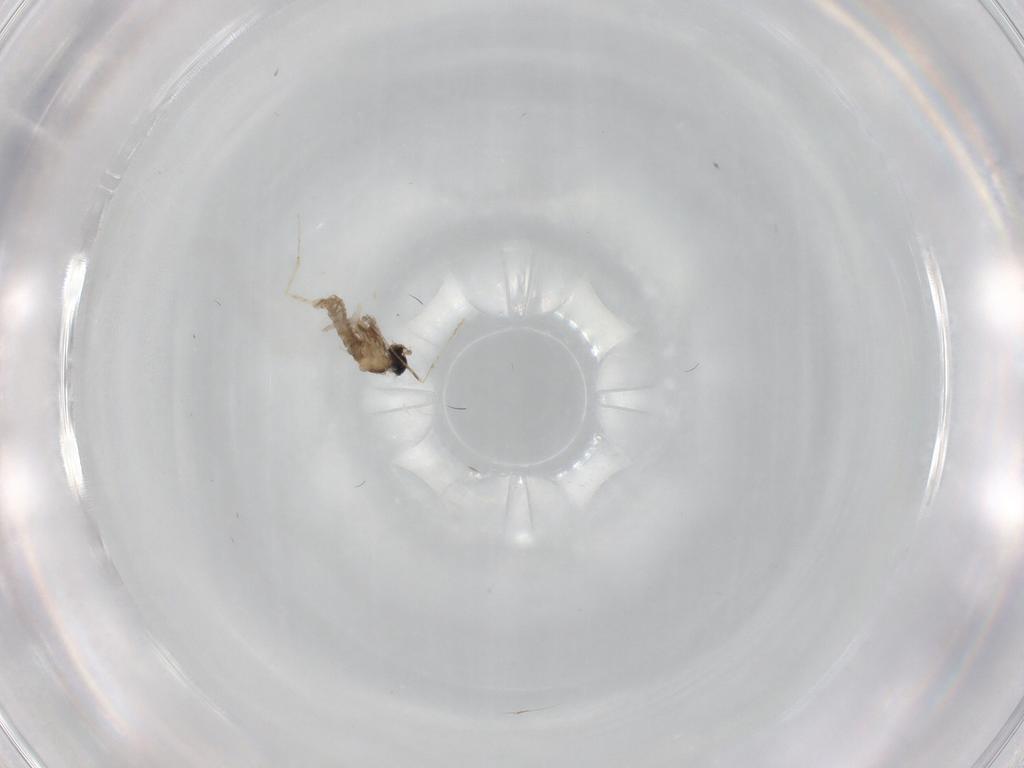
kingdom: Animalia
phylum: Arthropoda
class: Insecta
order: Diptera
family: Cecidomyiidae
